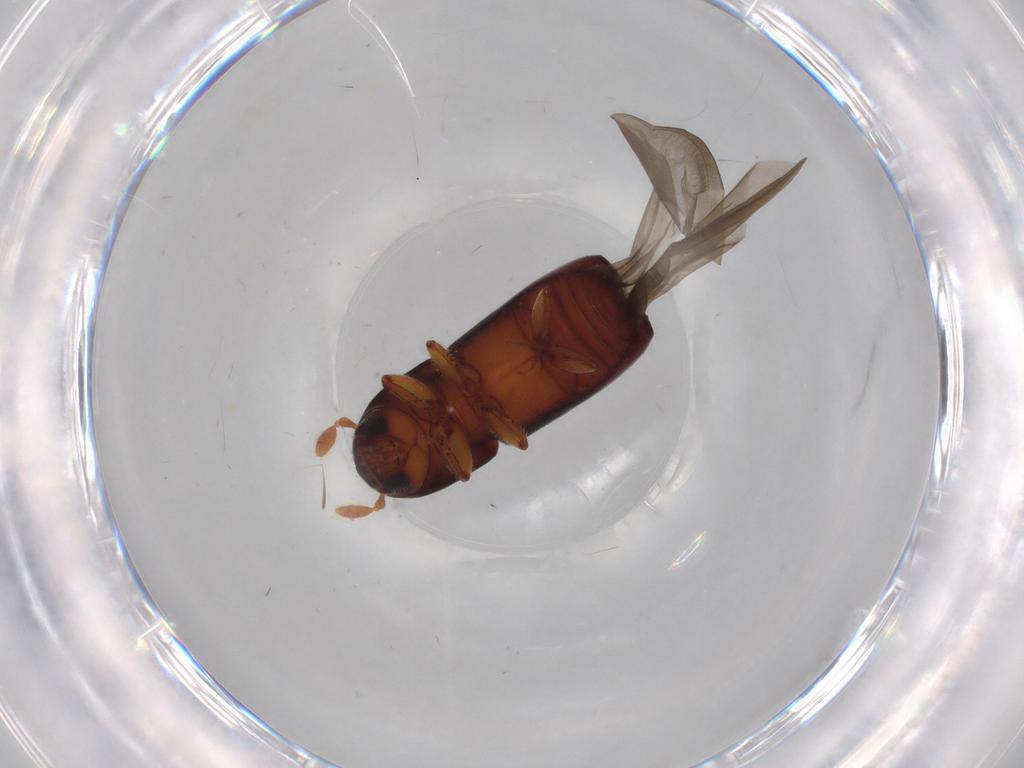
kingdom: Animalia
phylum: Arthropoda
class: Insecta
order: Coleoptera
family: Curculionidae
